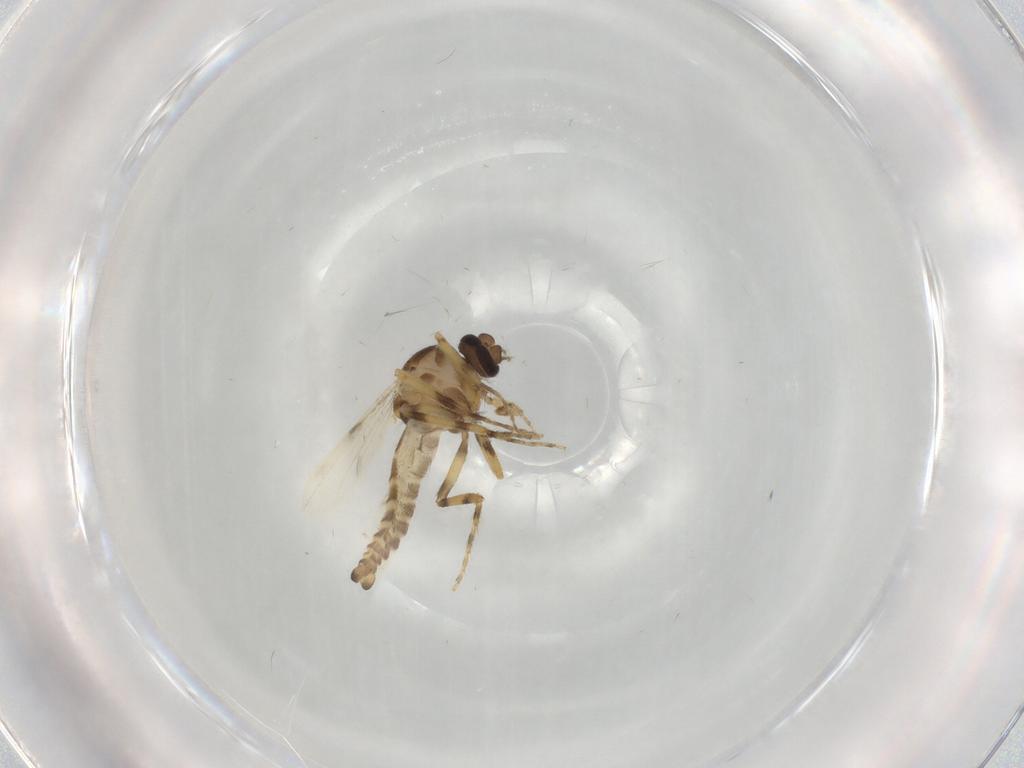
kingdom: Animalia
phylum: Arthropoda
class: Insecta
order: Diptera
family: Ceratopogonidae
